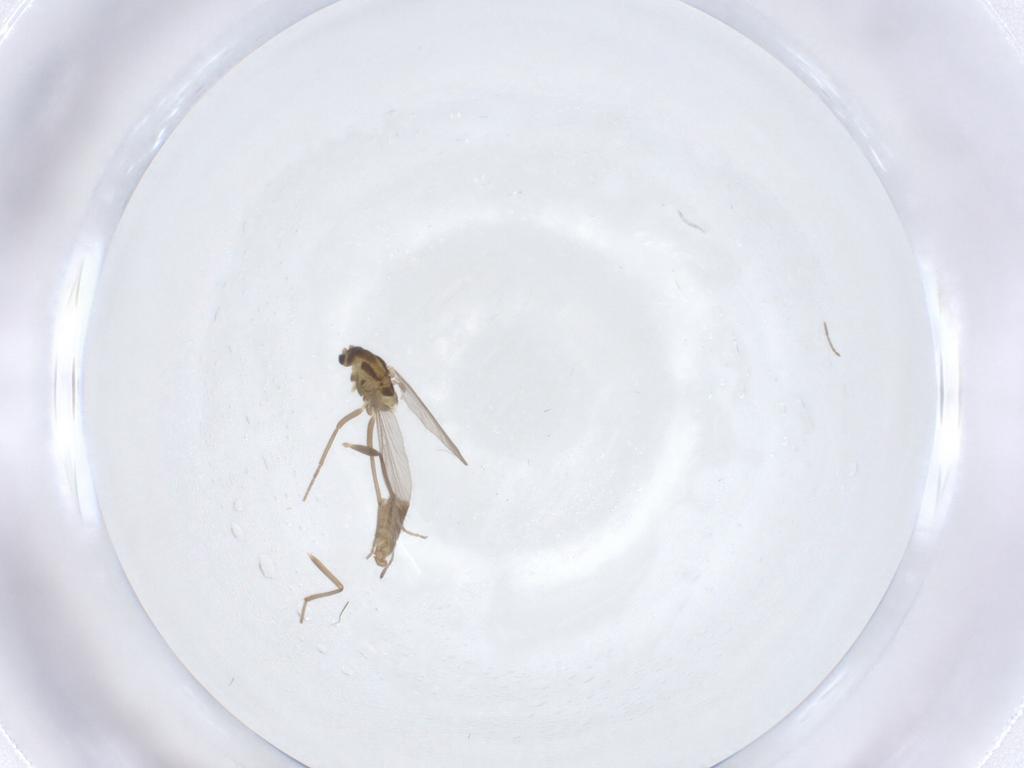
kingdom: Animalia
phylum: Arthropoda
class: Insecta
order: Diptera
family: Chironomidae
